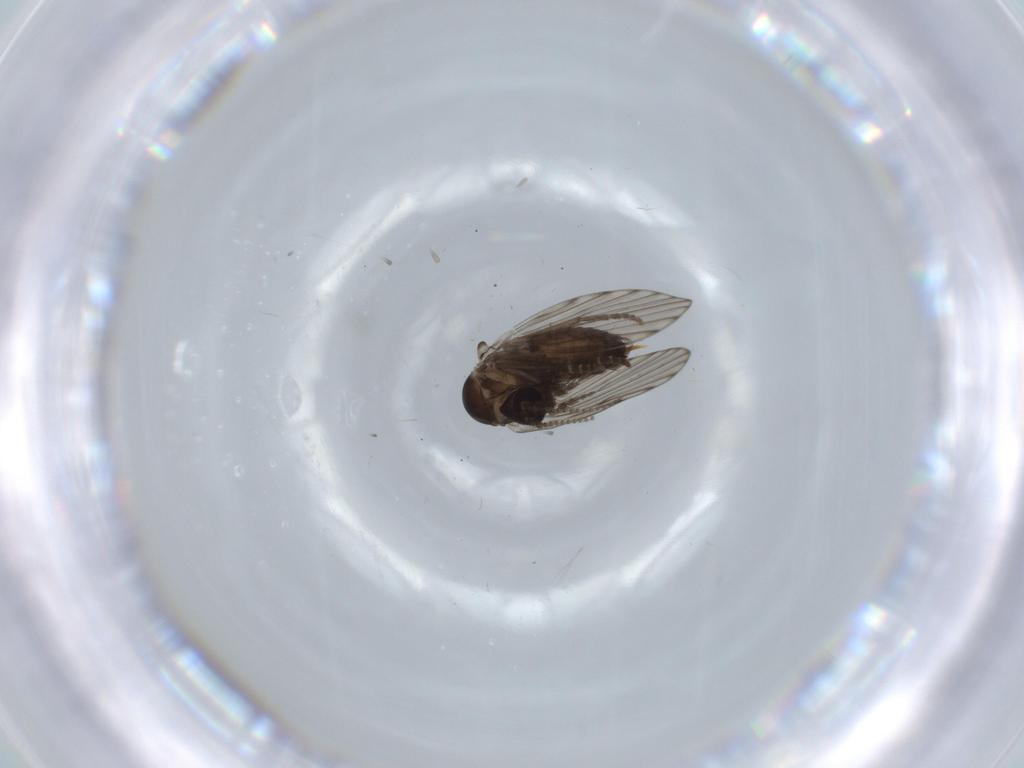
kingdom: Animalia
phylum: Arthropoda
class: Insecta
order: Diptera
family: Psychodidae
